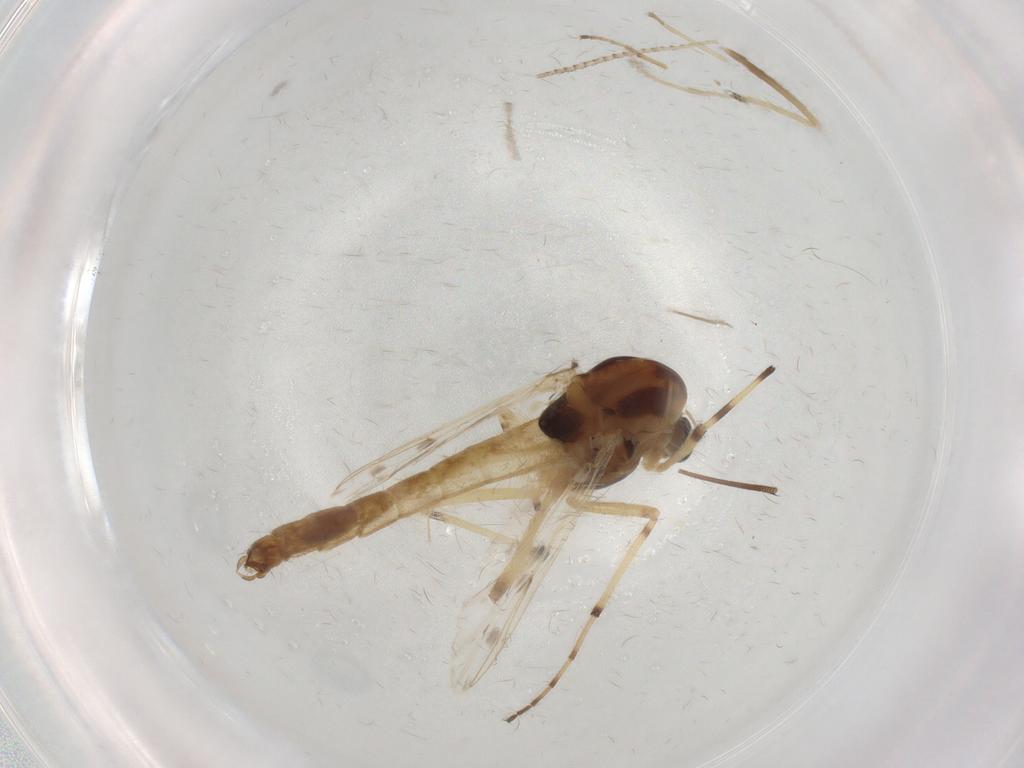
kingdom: Animalia
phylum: Arthropoda
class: Insecta
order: Diptera
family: Chironomidae
